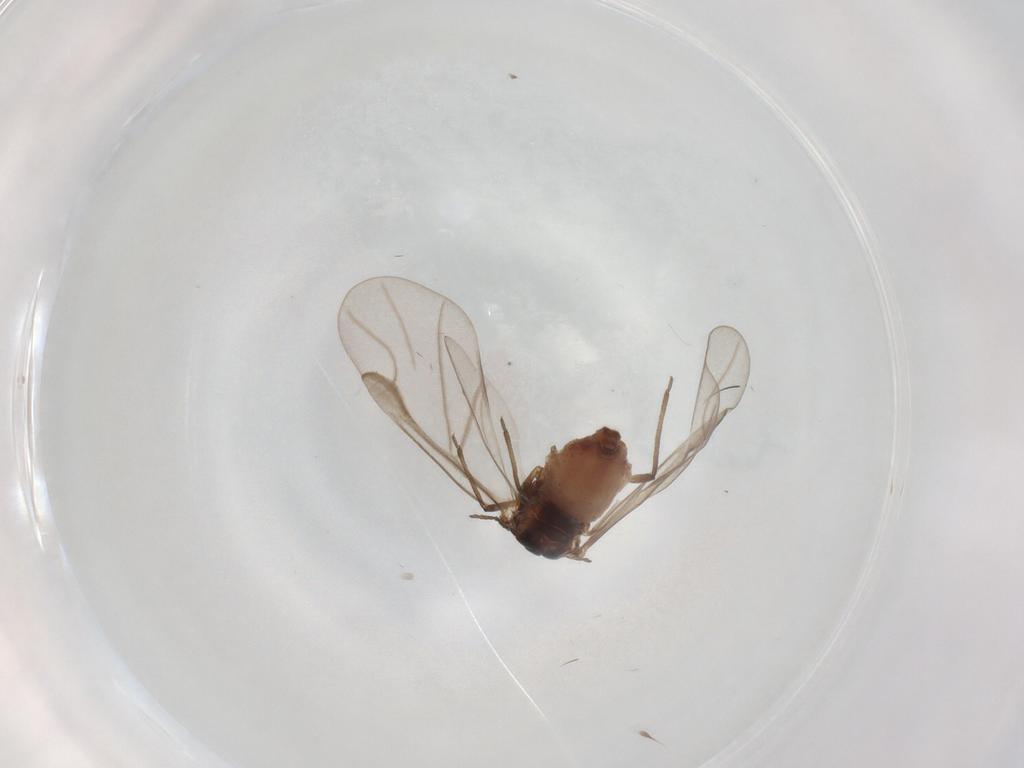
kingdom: Animalia
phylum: Arthropoda
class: Insecta
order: Hemiptera
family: Aphididae
